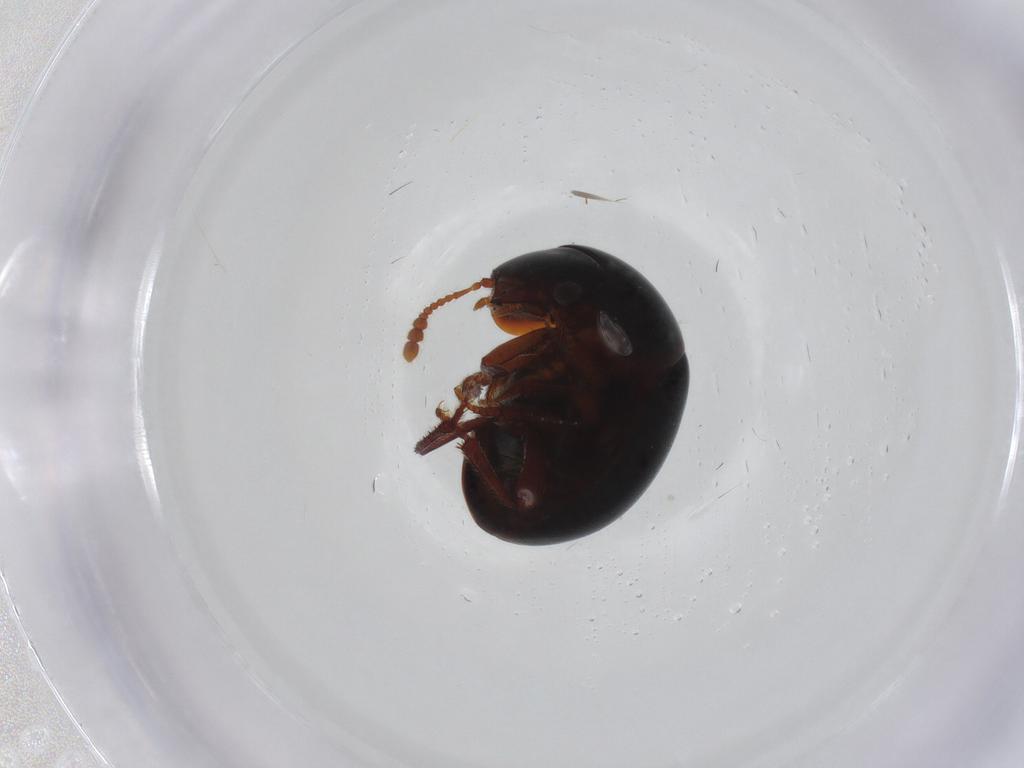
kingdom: Animalia
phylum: Arthropoda
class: Insecta
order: Coleoptera
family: Leiodidae
